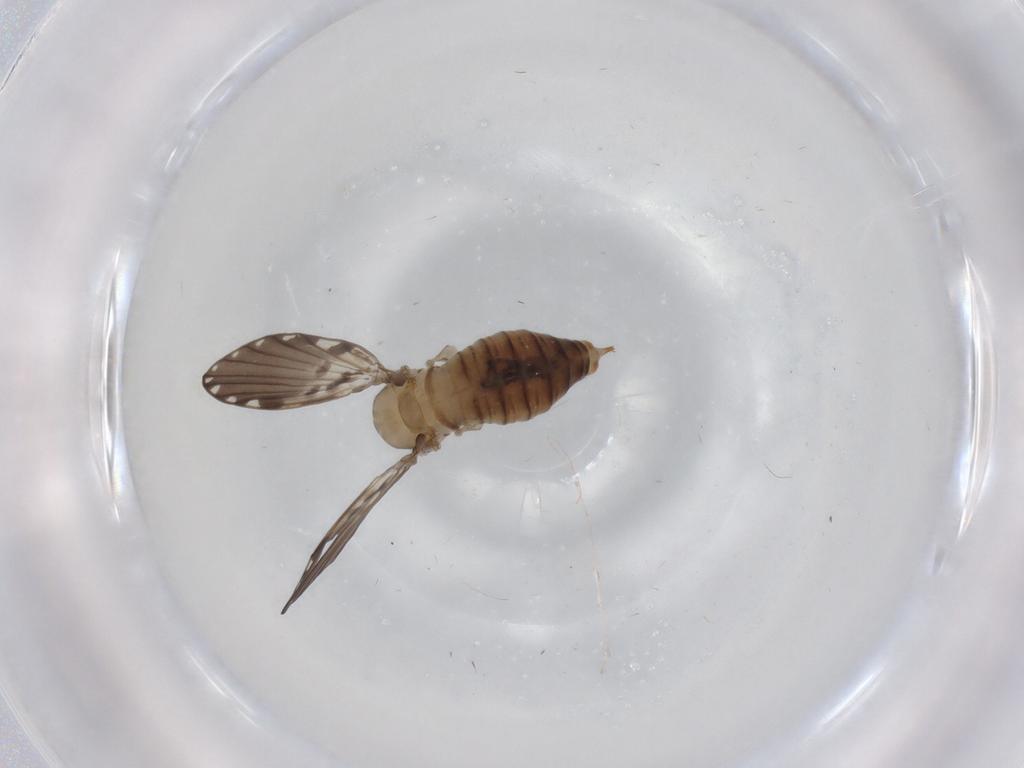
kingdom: Animalia
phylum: Arthropoda
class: Insecta
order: Diptera
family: Psychodidae
